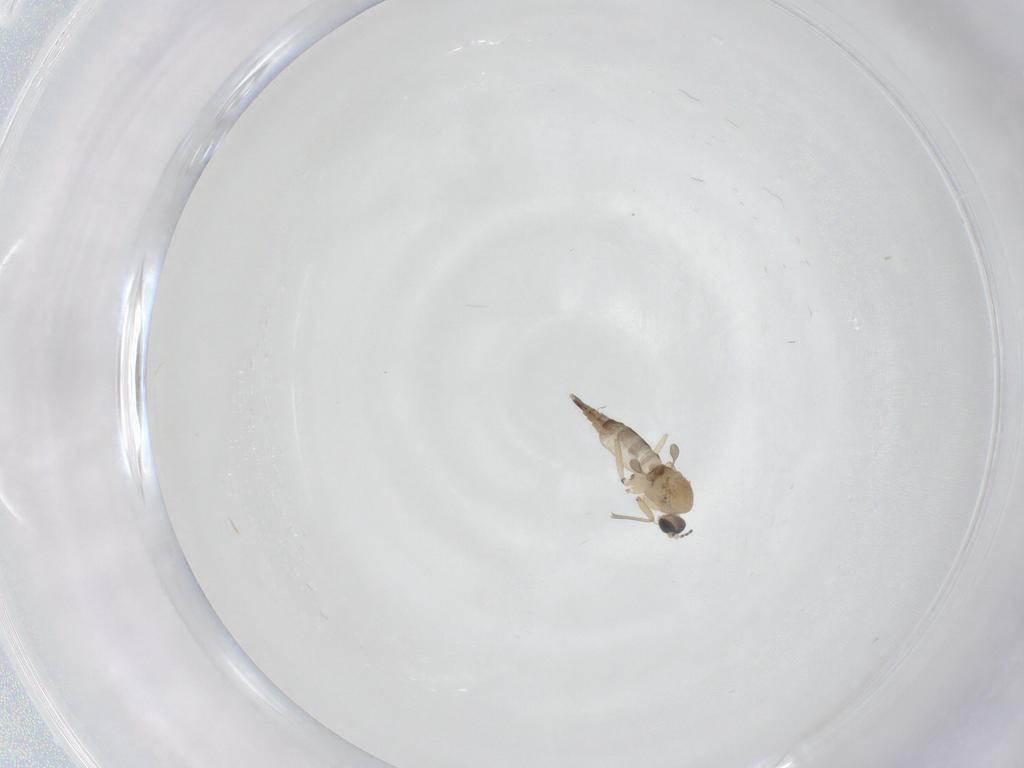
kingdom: Animalia
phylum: Arthropoda
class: Insecta
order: Diptera
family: Sciaridae
